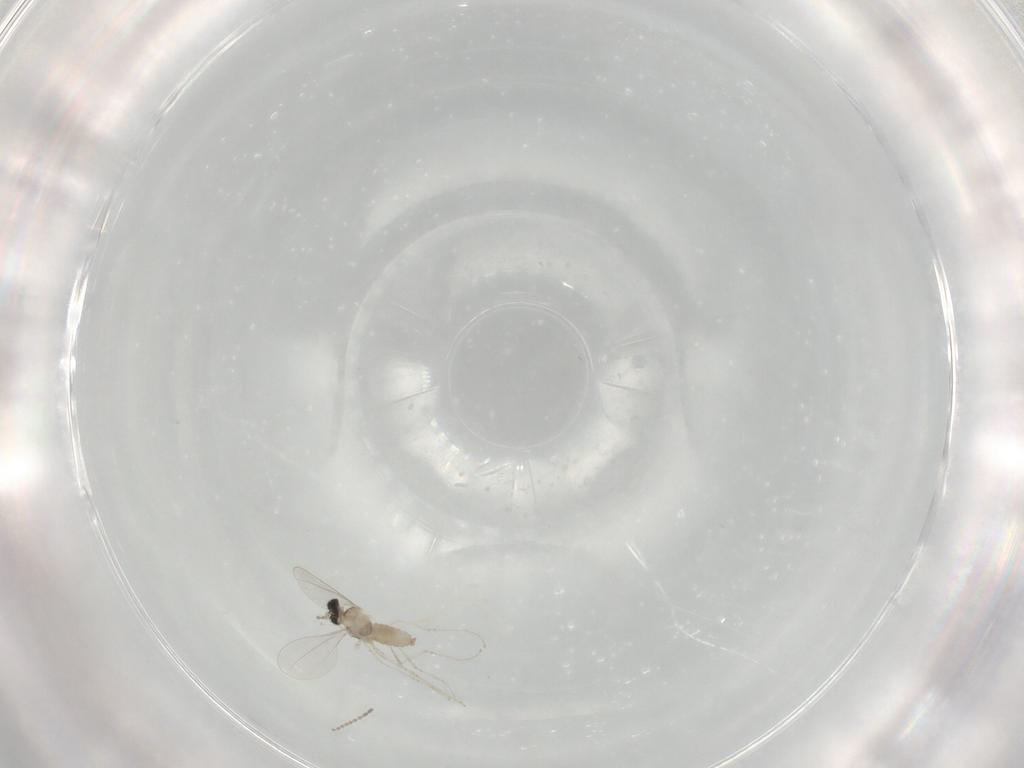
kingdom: Animalia
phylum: Arthropoda
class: Insecta
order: Diptera
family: Cecidomyiidae
